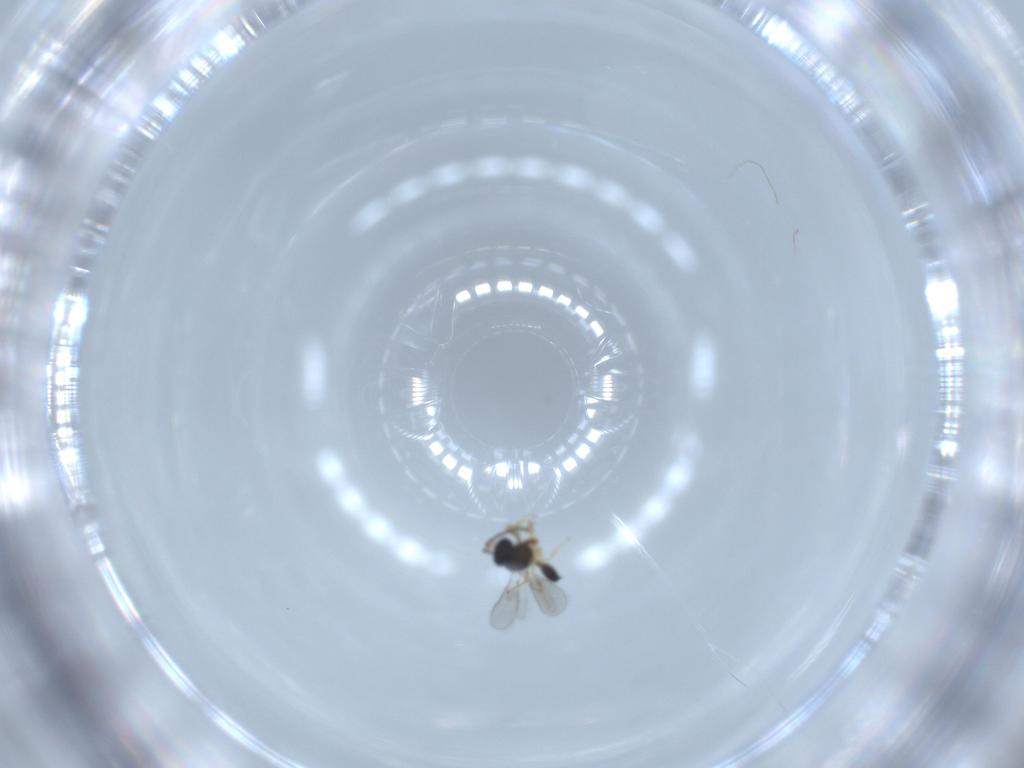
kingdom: Animalia
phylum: Arthropoda
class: Insecta
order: Hymenoptera
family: Scelionidae
